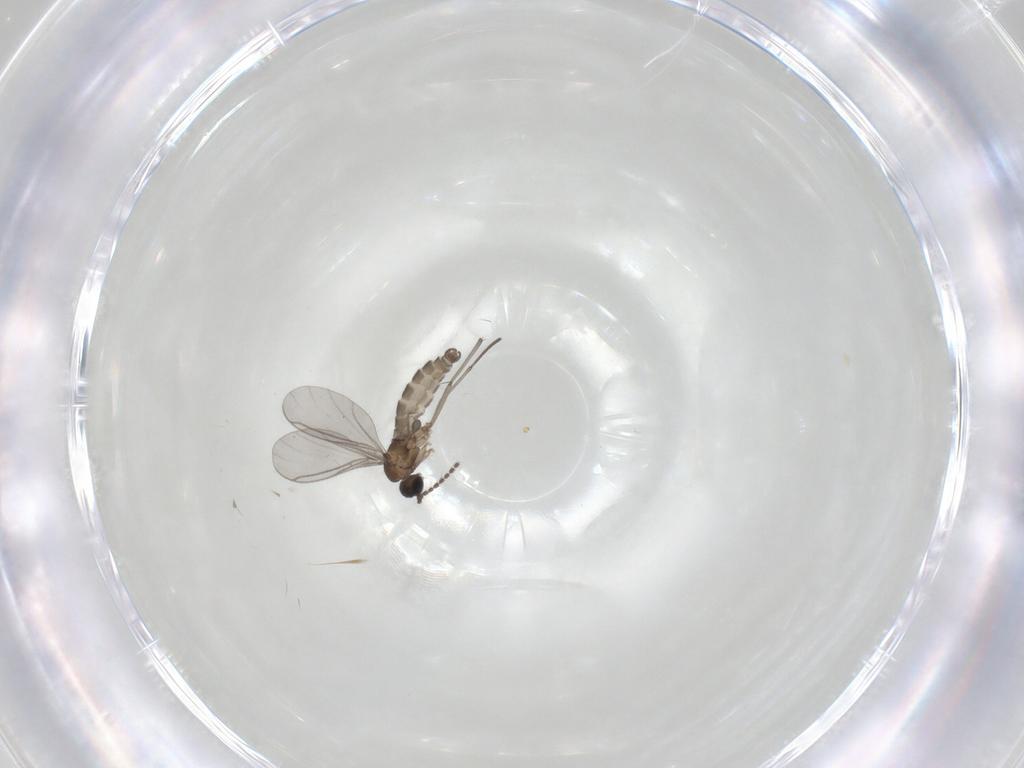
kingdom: Animalia
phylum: Arthropoda
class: Insecta
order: Diptera
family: Sciaridae
